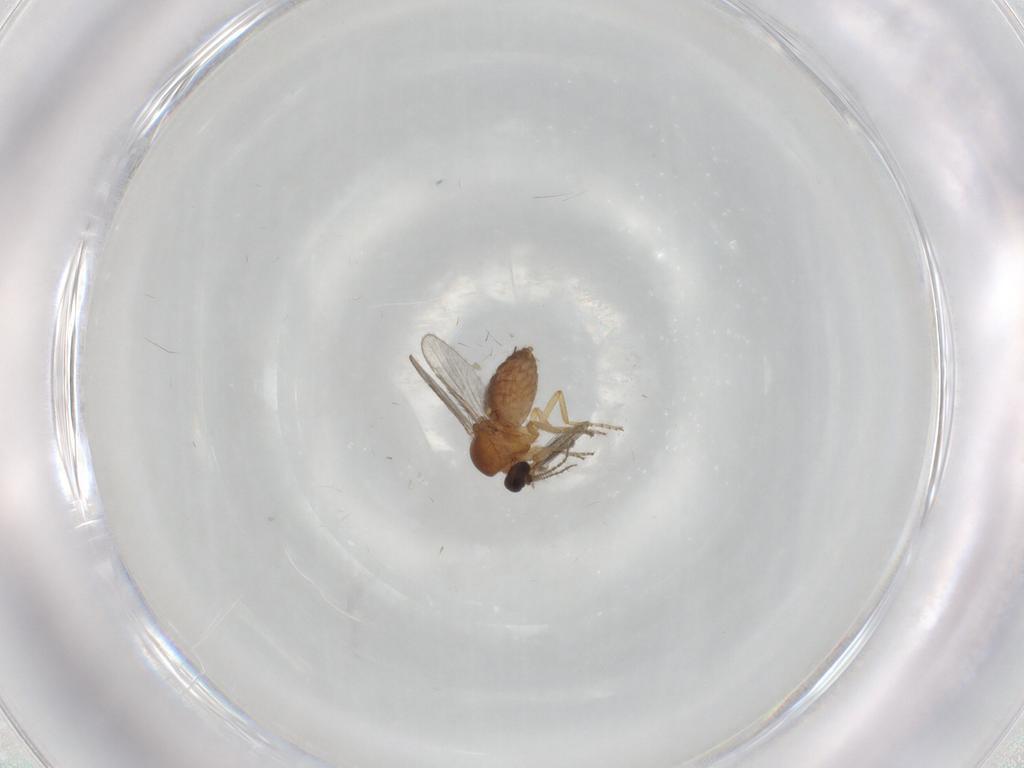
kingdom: Animalia
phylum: Arthropoda
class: Insecta
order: Diptera
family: Ceratopogonidae
